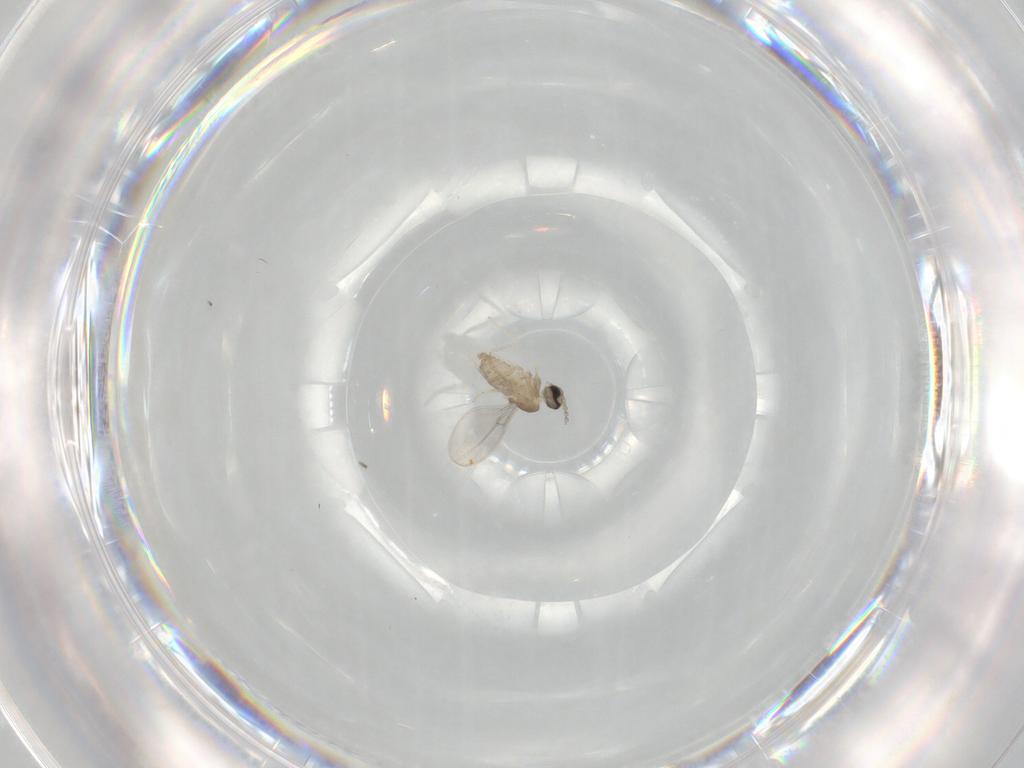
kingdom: Animalia
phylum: Arthropoda
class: Insecta
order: Diptera
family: Cecidomyiidae
